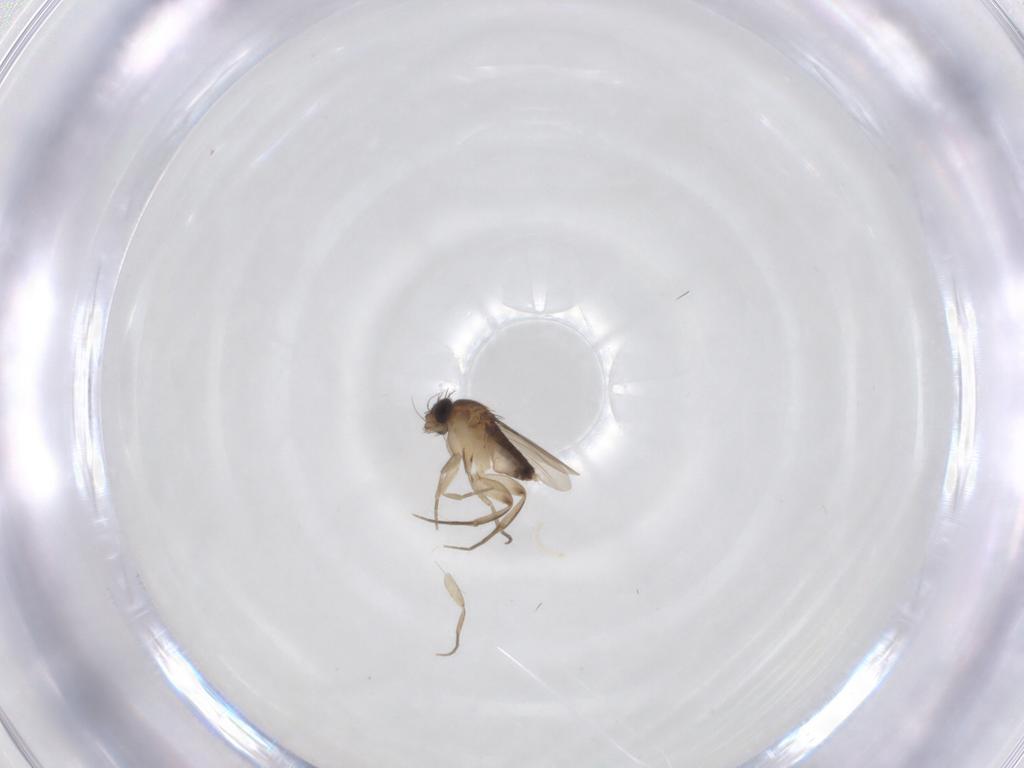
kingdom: Animalia
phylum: Arthropoda
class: Insecta
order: Diptera
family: Phoridae
